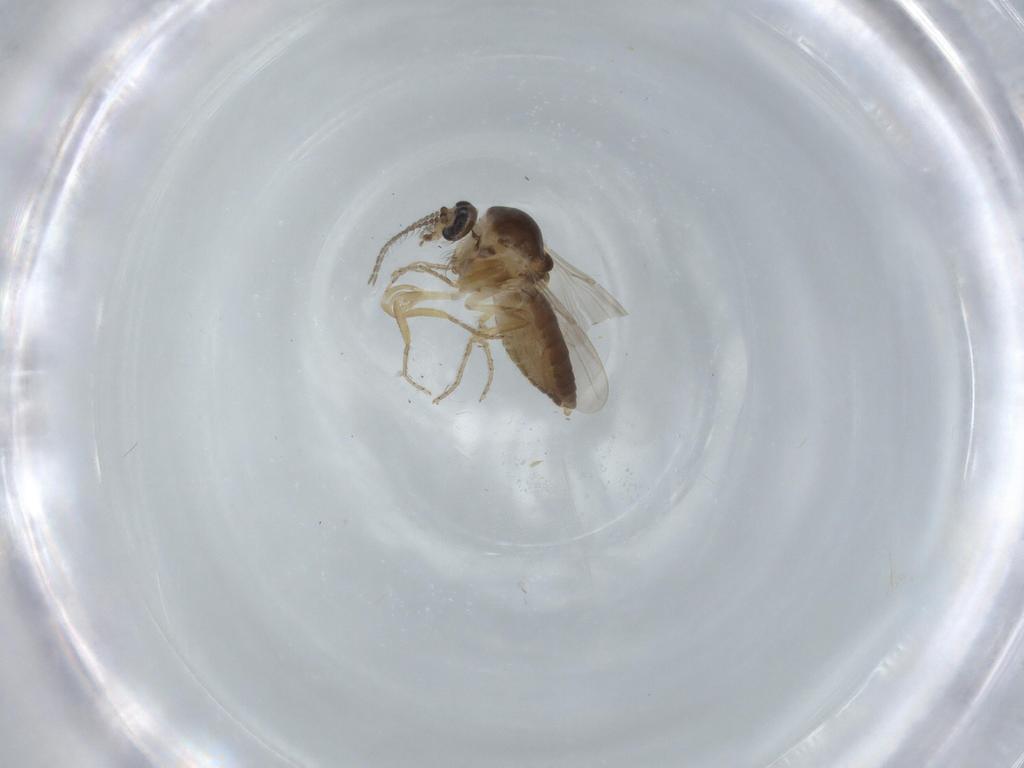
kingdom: Animalia
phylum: Arthropoda
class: Insecta
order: Diptera
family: Ceratopogonidae
